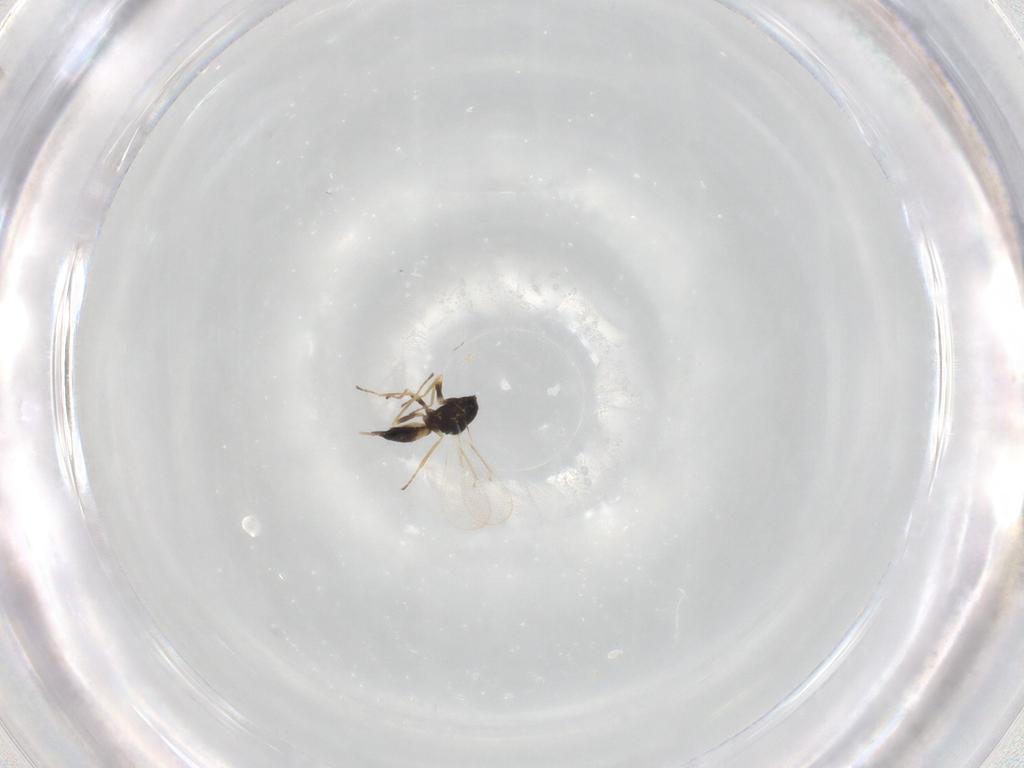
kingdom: Animalia
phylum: Arthropoda
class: Insecta
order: Hymenoptera
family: Eulophidae
